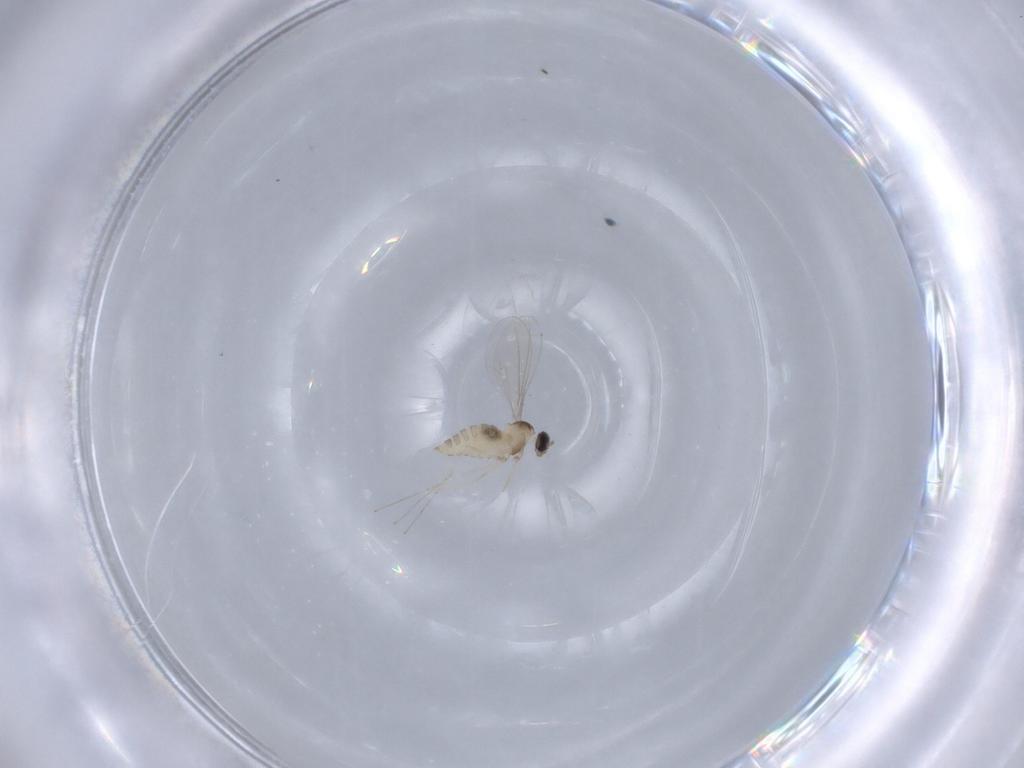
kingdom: Animalia
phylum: Arthropoda
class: Insecta
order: Diptera
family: Cecidomyiidae
